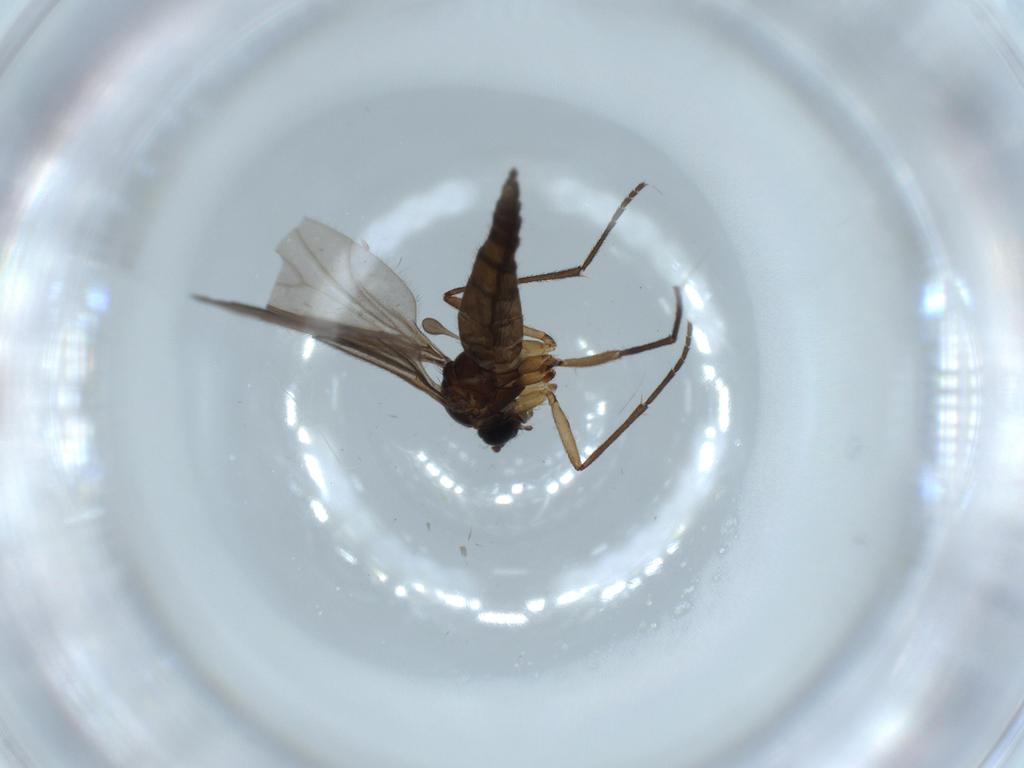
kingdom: Animalia
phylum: Arthropoda
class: Insecta
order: Diptera
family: Sciaridae
